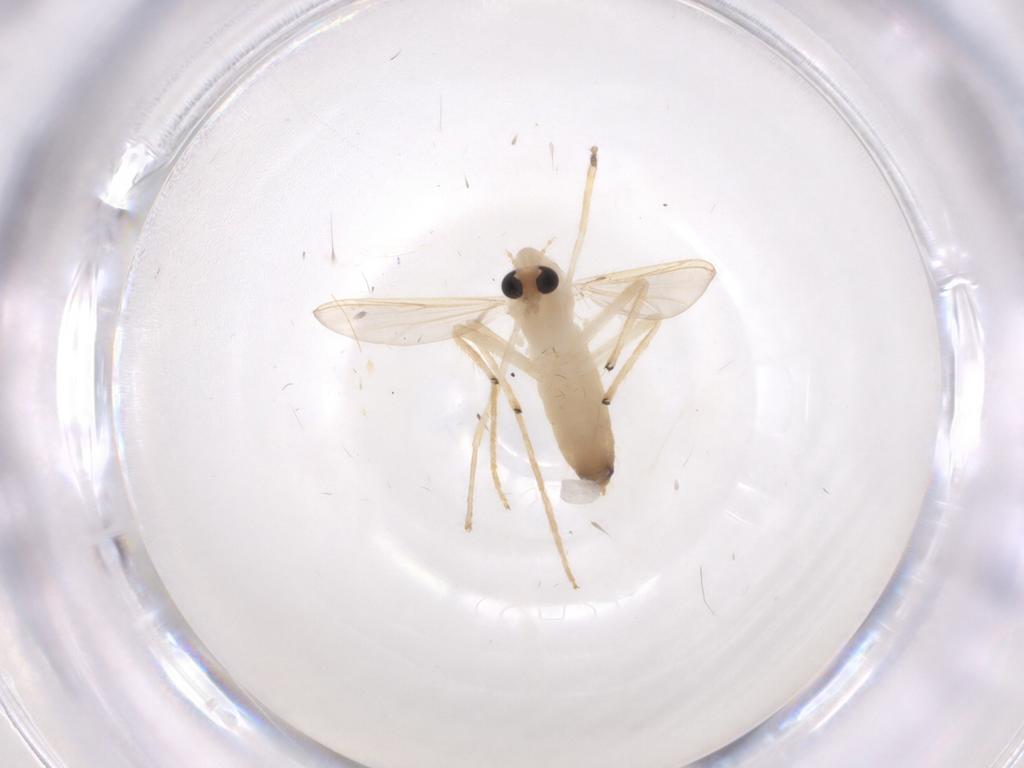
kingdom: Animalia
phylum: Arthropoda
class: Insecta
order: Diptera
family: Chironomidae
